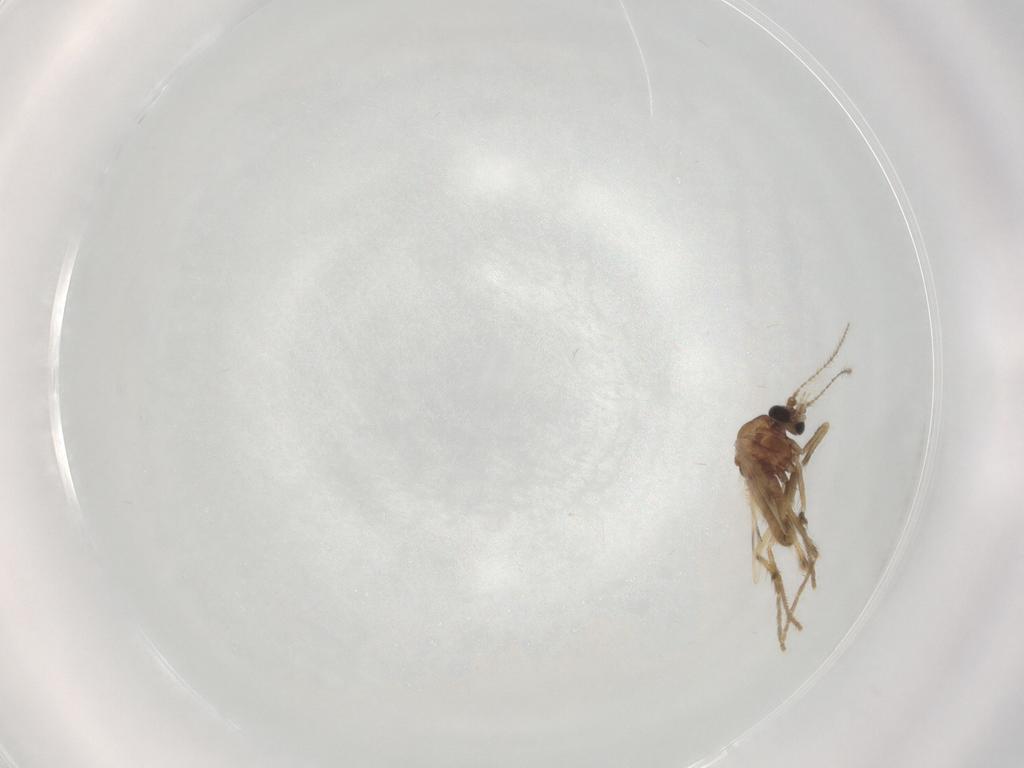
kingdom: Animalia
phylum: Arthropoda
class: Insecta
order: Diptera
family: Corethrellidae
